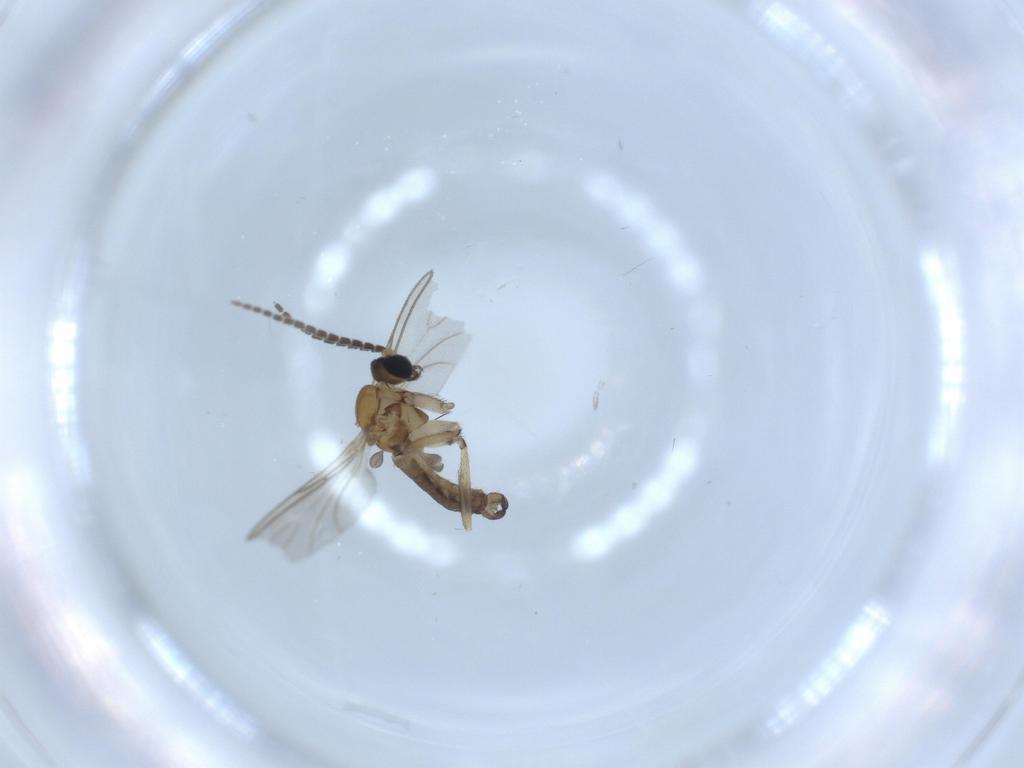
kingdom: Animalia
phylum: Arthropoda
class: Insecta
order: Diptera
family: Sciaridae
